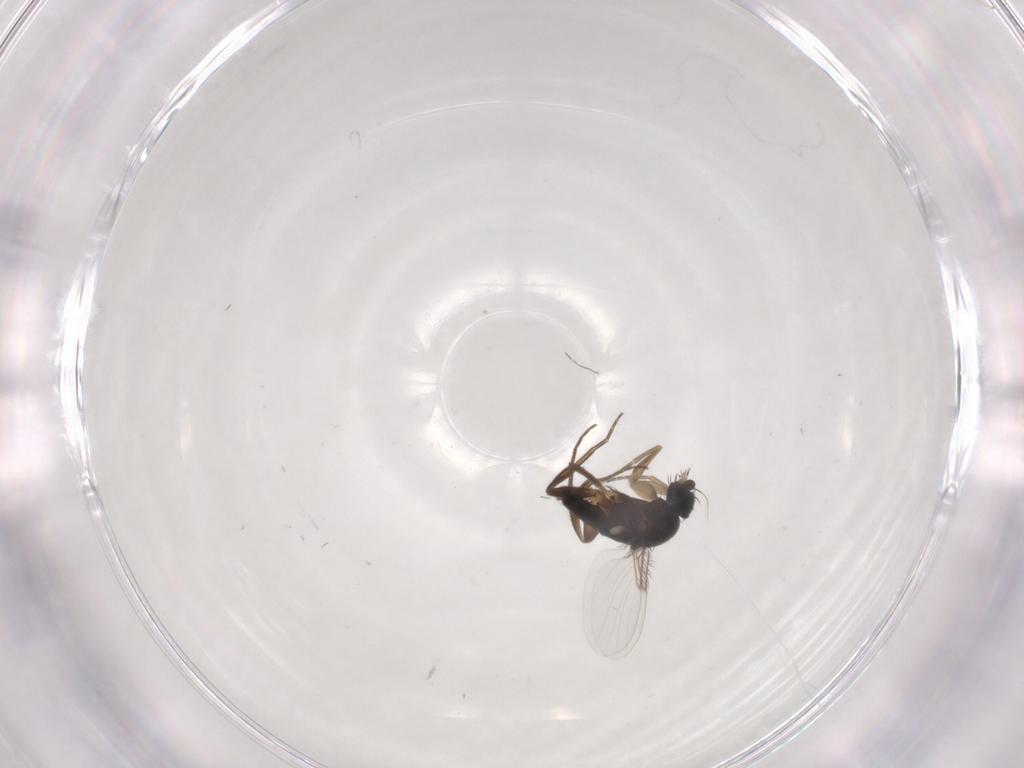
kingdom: Animalia
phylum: Arthropoda
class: Insecta
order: Diptera
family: Phoridae
